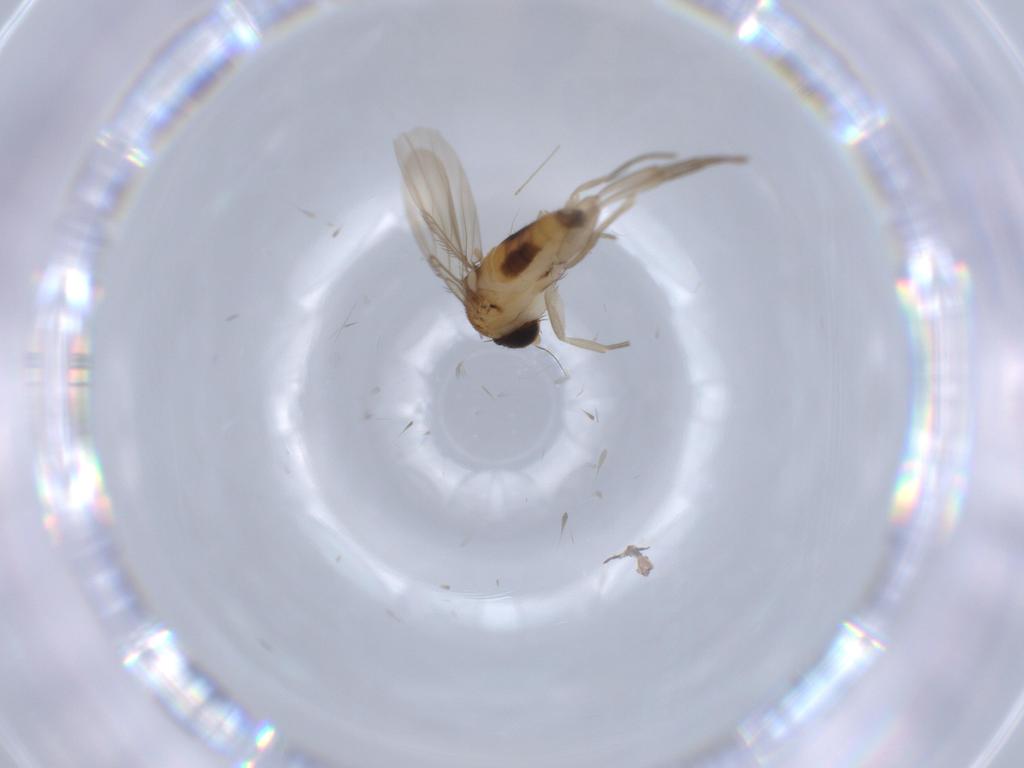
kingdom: Animalia
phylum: Arthropoda
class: Insecta
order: Diptera
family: Phoridae
